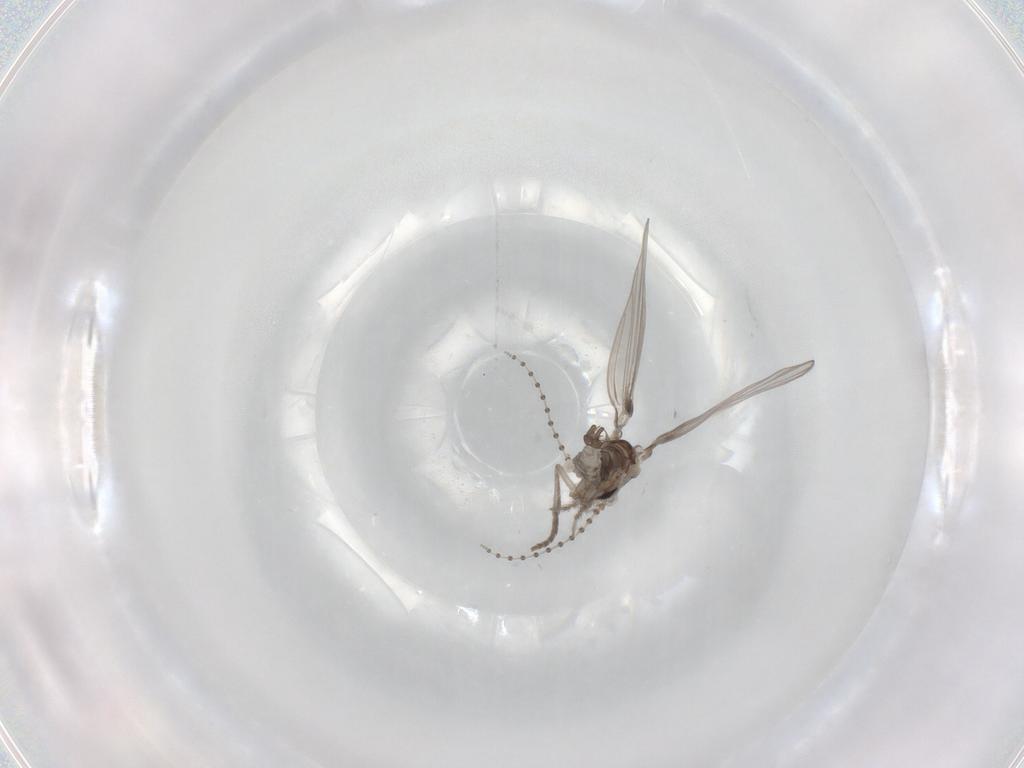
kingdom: Animalia
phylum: Arthropoda
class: Insecta
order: Diptera
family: Psychodidae
